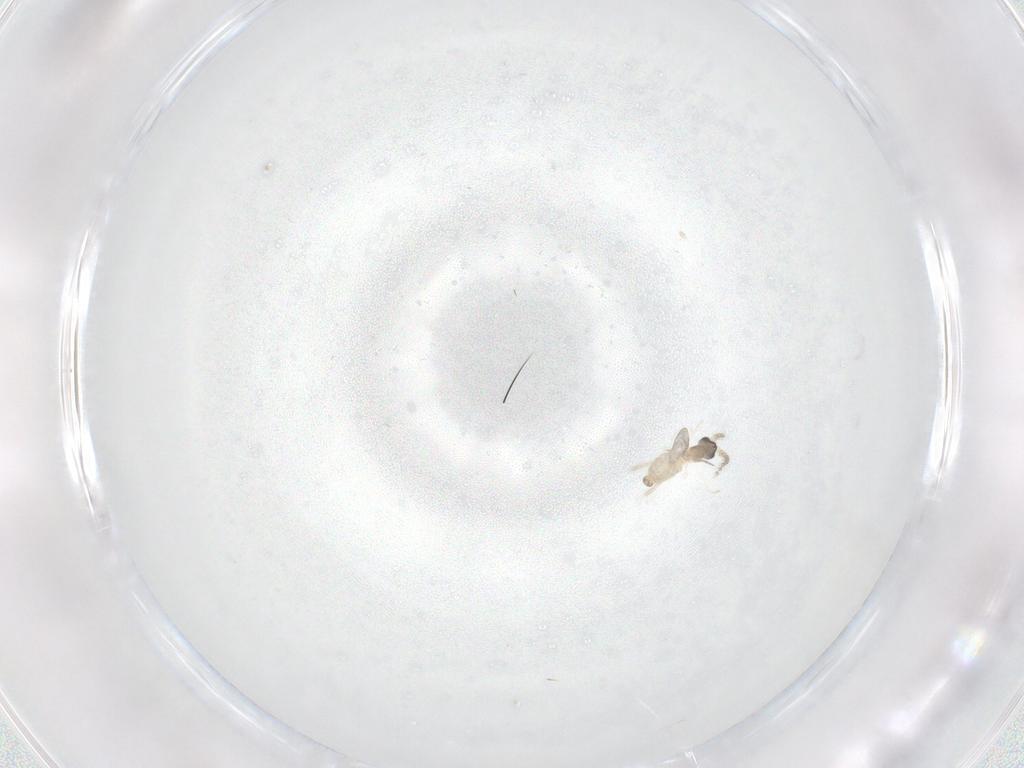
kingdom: Animalia
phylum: Arthropoda
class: Insecta
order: Diptera
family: Cecidomyiidae
